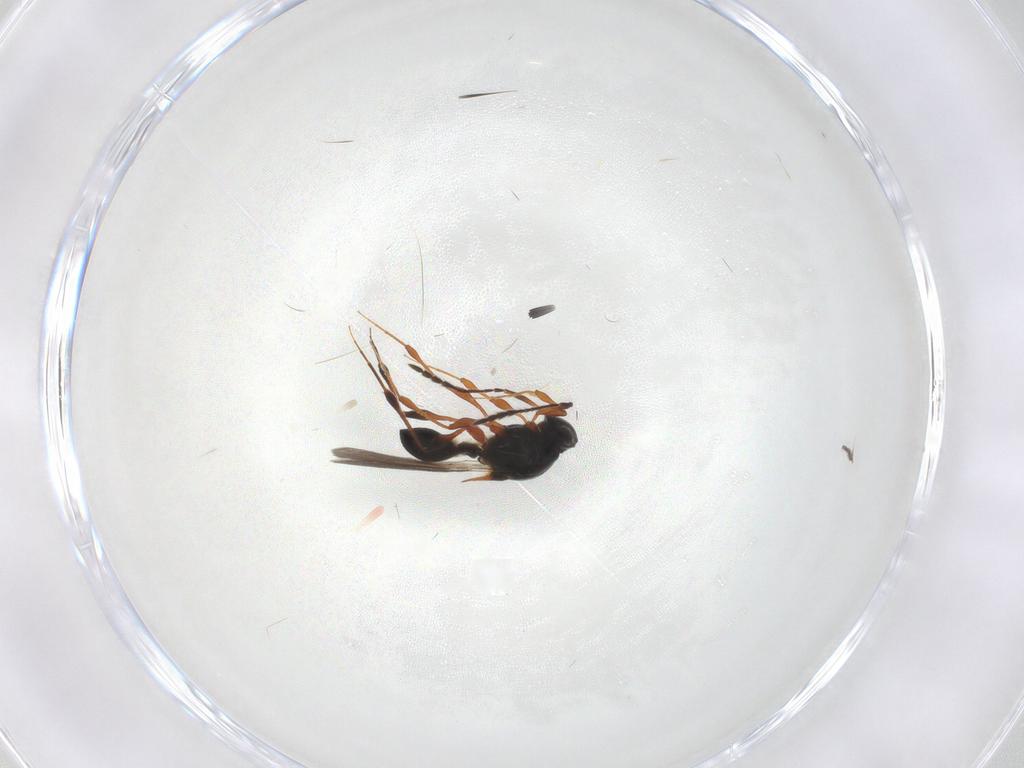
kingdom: Animalia
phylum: Arthropoda
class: Insecta
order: Hymenoptera
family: Platygastridae
